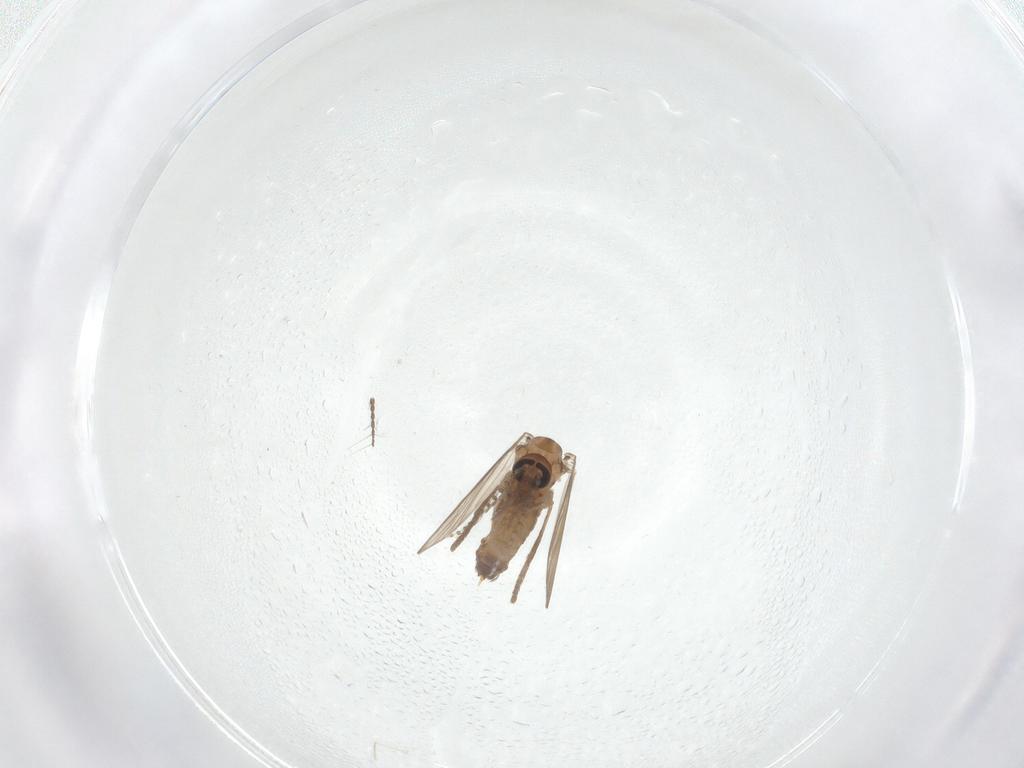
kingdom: Animalia
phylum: Arthropoda
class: Insecta
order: Diptera
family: Psychodidae
